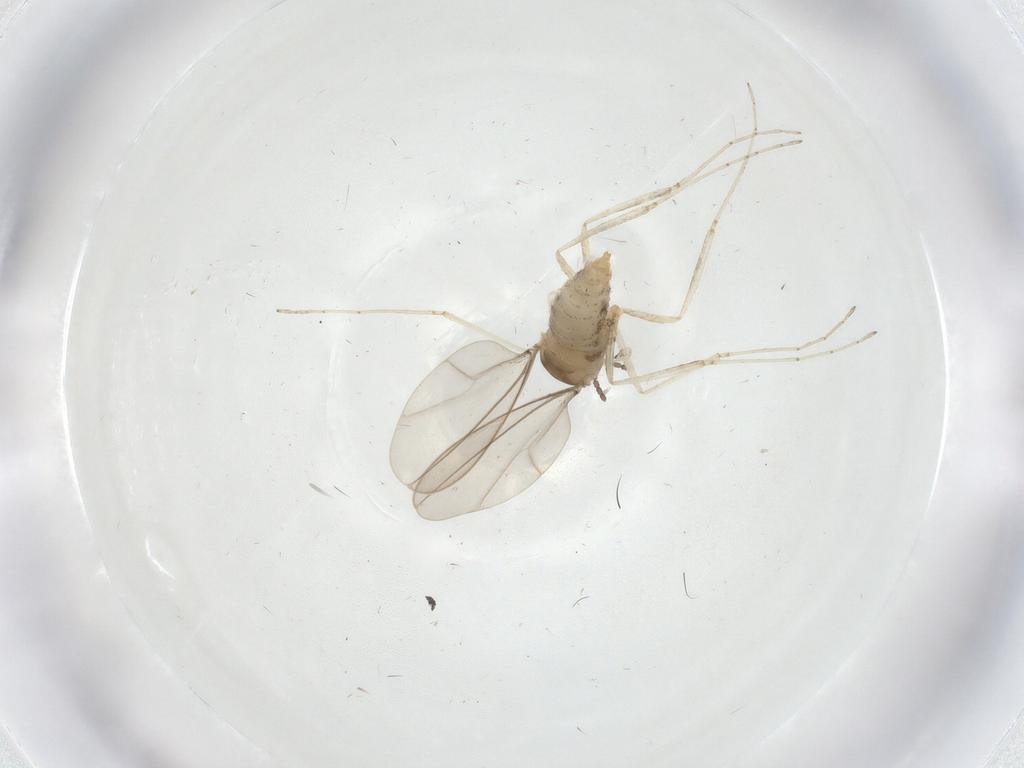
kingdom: Animalia
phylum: Arthropoda
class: Insecta
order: Diptera
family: Cecidomyiidae
